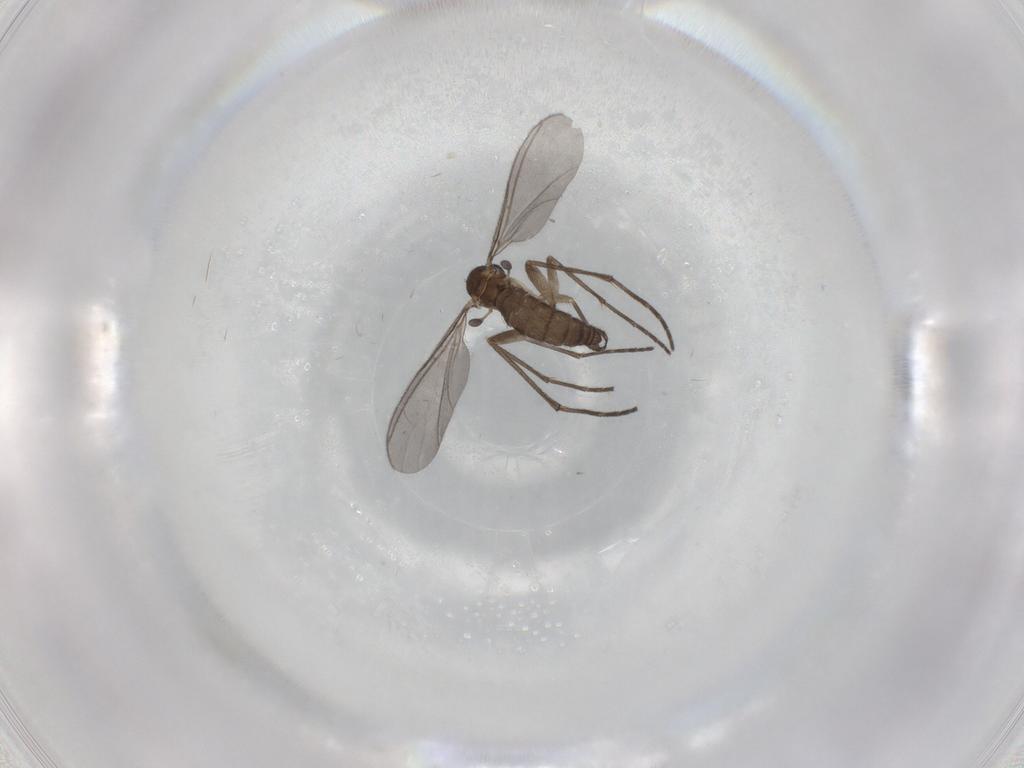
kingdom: Animalia
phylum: Arthropoda
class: Insecta
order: Diptera
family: Sciaridae
